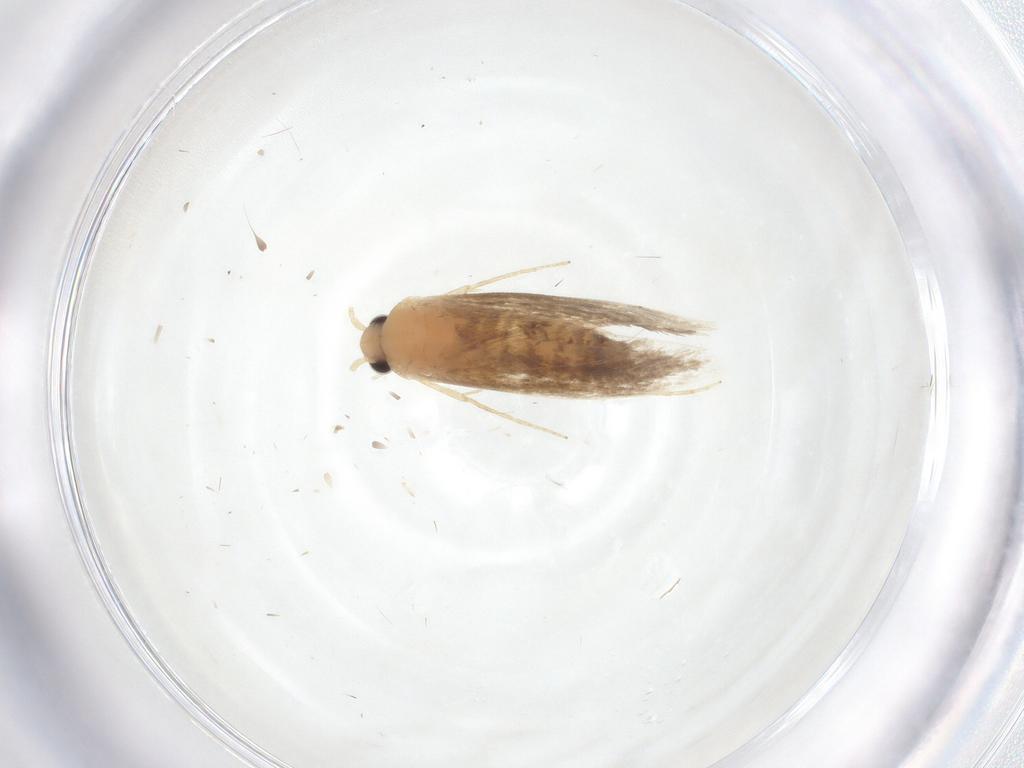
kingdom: Animalia
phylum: Arthropoda
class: Insecta
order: Lepidoptera
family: Tineidae
